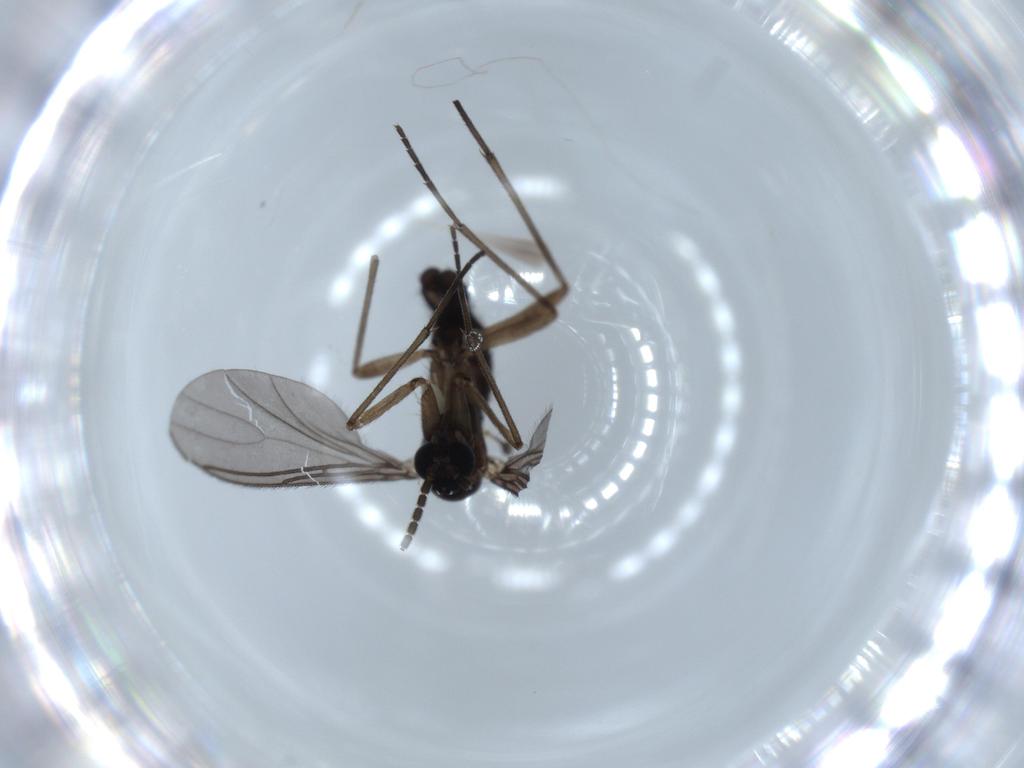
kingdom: Animalia
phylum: Arthropoda
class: Insecta
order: Diptera
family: Sciaridae
